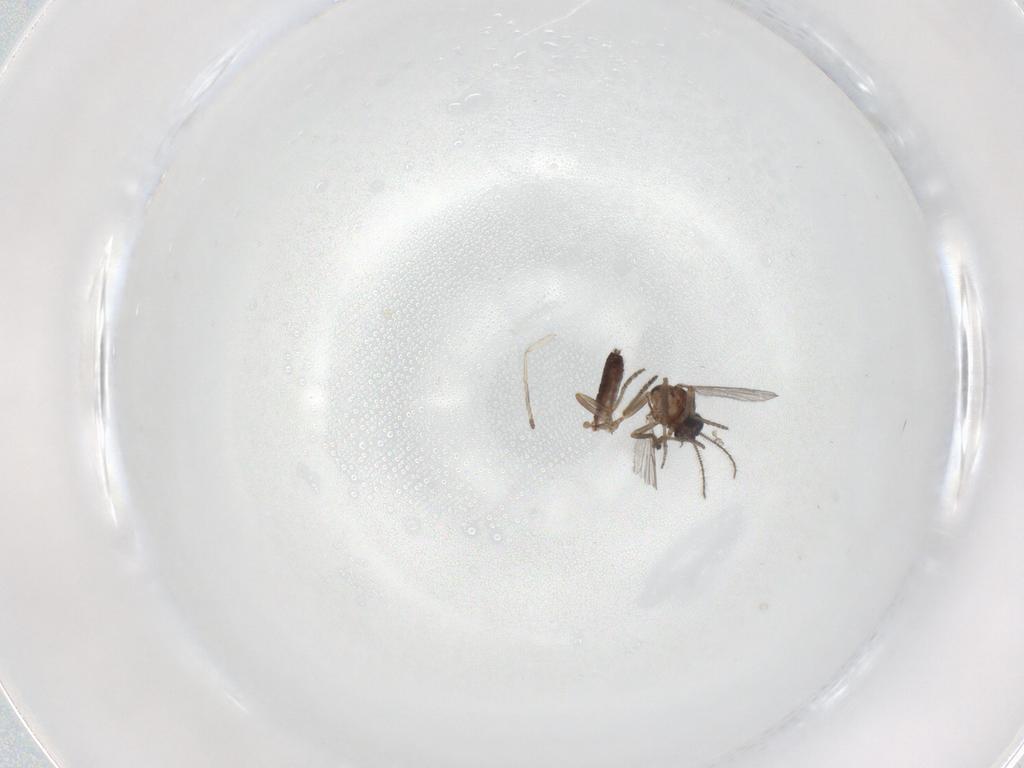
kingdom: Animalia
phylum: Arthropoda
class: Insecta
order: Diptera
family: Ceratopogonidae
